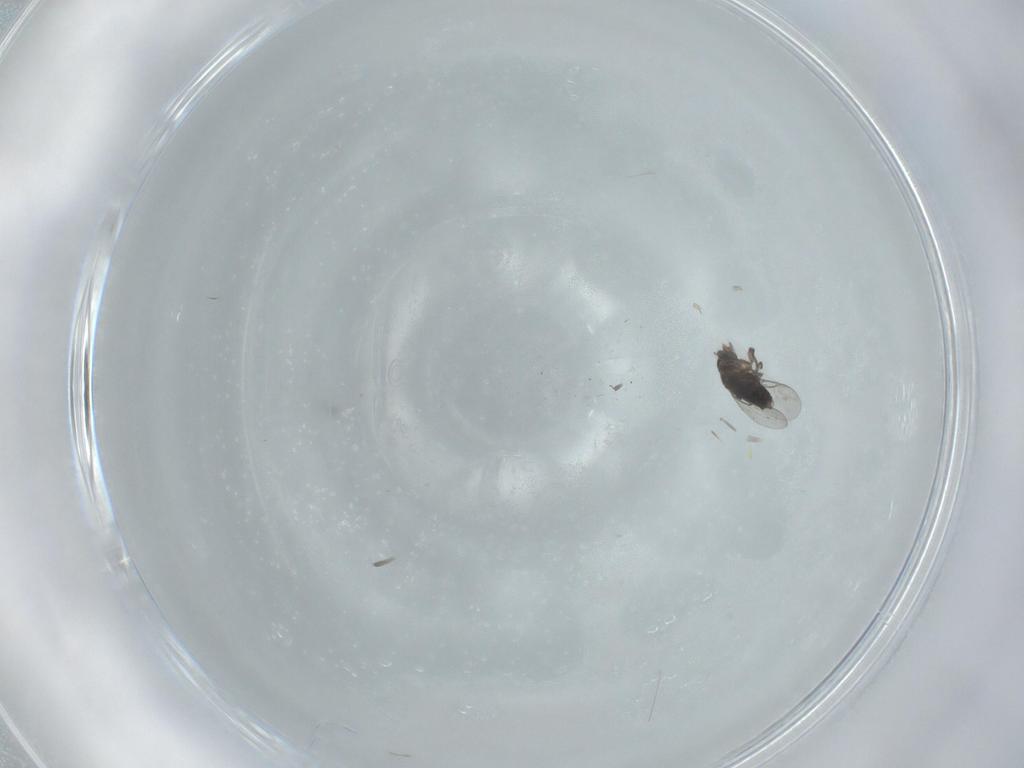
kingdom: Animalia
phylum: Arthropoda
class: Insecta
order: Diptera
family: Phoridae
